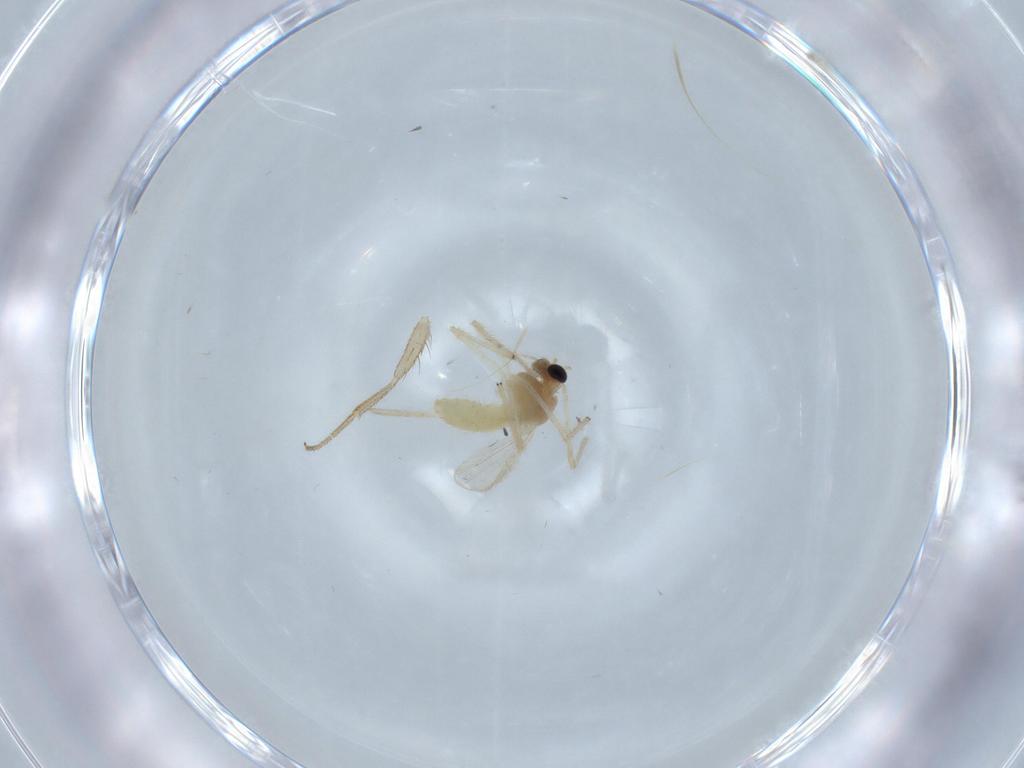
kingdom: Animalia
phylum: Arthropoda
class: Insecta
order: Diptera
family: Chironomidae
